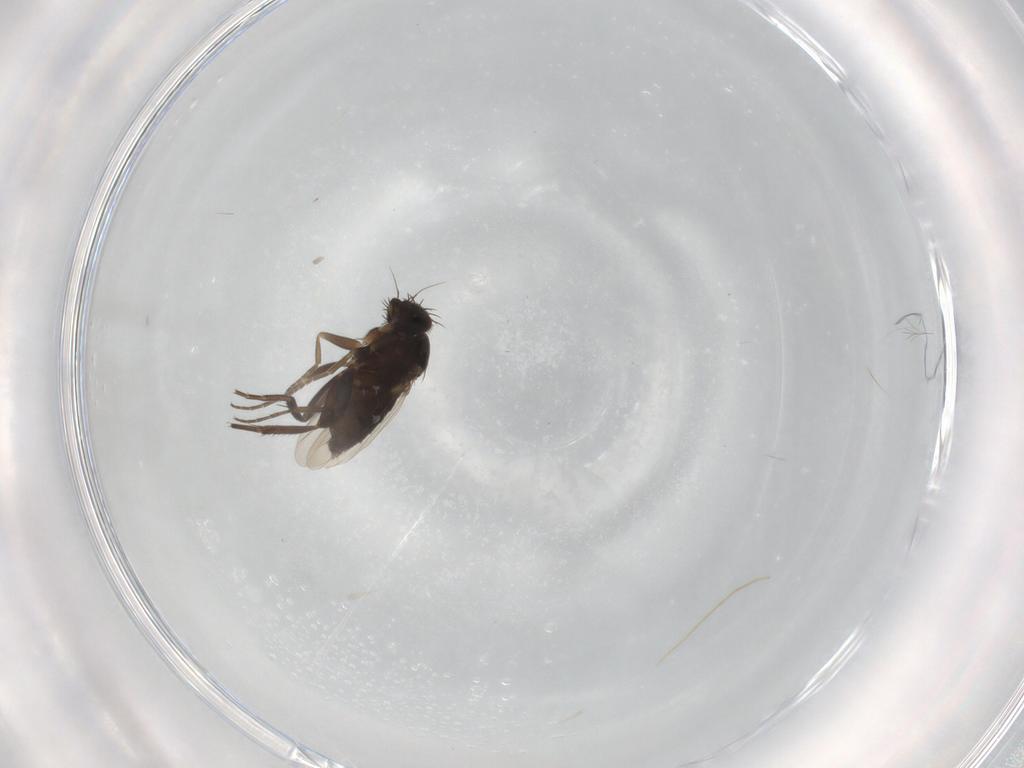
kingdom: Animalia
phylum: Arthropoda
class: Insecta
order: Diptera
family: Phoridae
